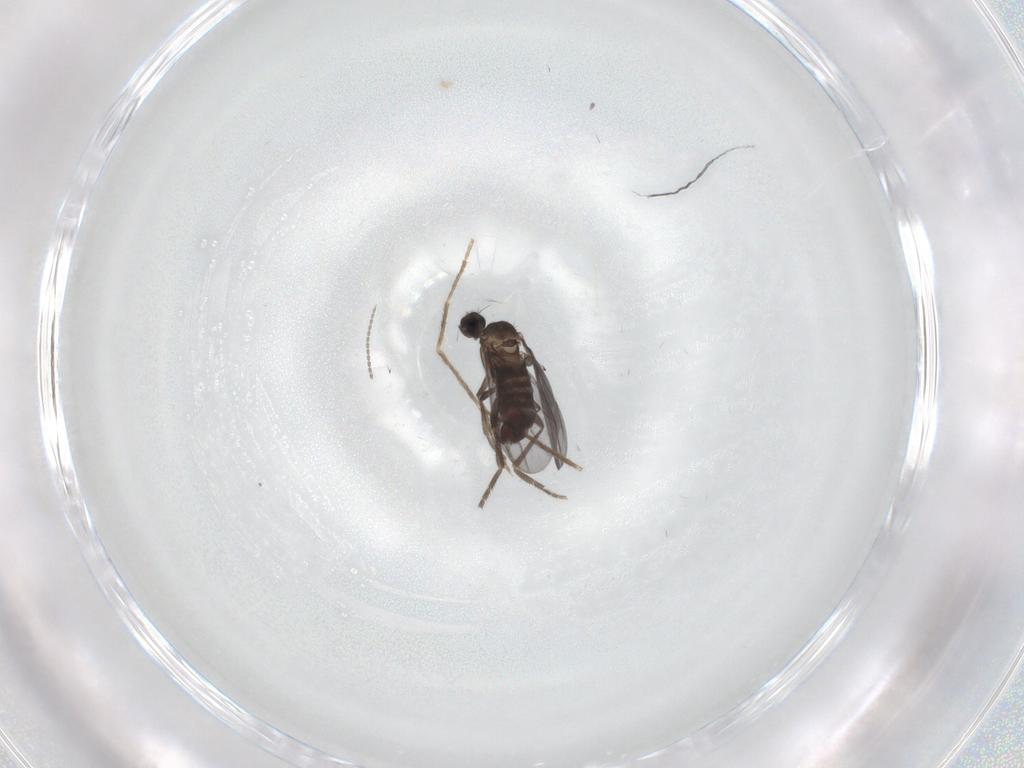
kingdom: Animalia
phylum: Arthropoda
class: Insecta
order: Diptera
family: Phoridae
